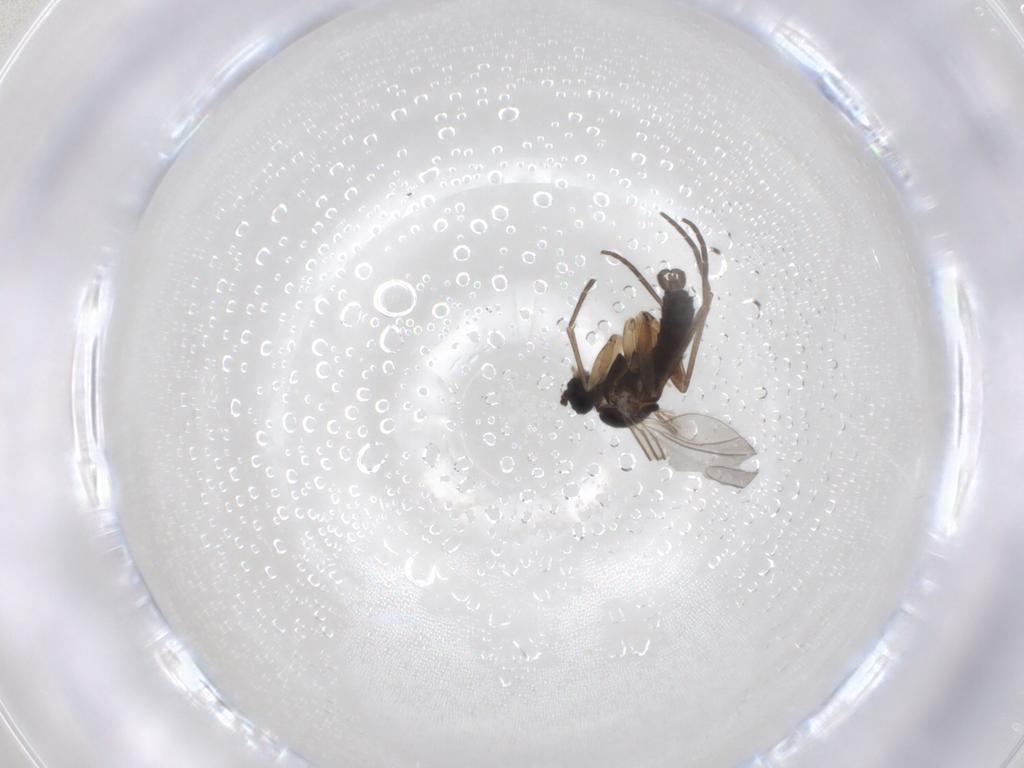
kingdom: Animalia
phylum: Arthropoda
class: Insecta
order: Diptera
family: Sciaridae
